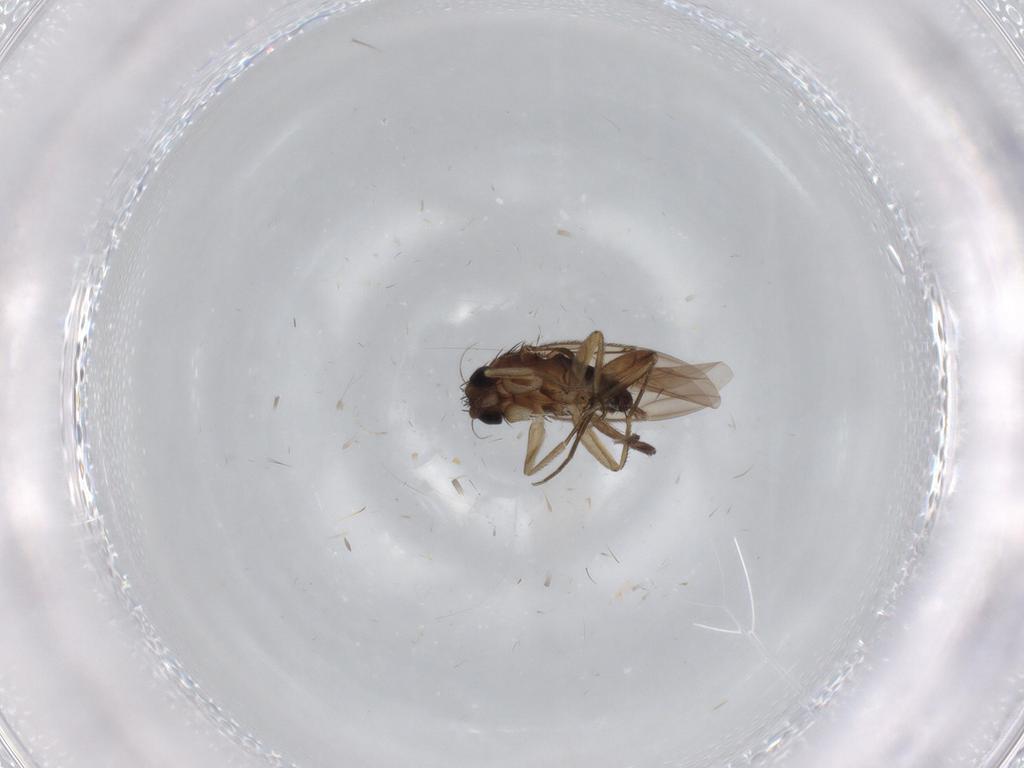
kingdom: Animalia
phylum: Arthropoda
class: Insecta
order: Diptera
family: Phoridae
